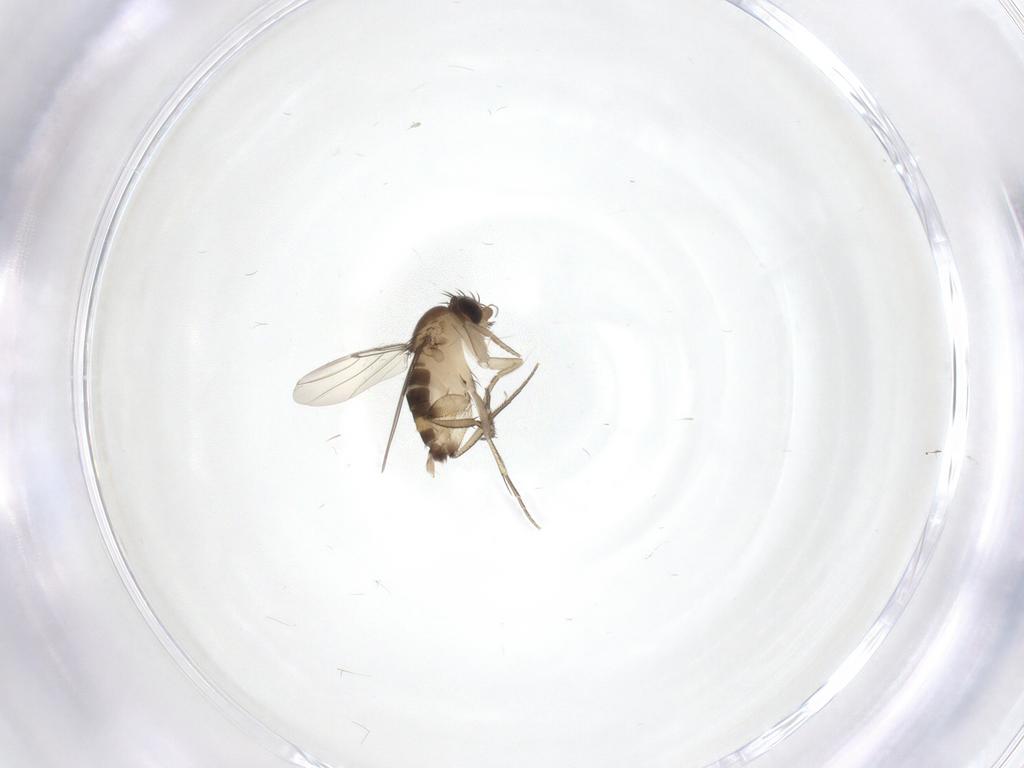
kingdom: Animalia
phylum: Arthropoda
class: Insecta
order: Diptera
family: Phoridae
